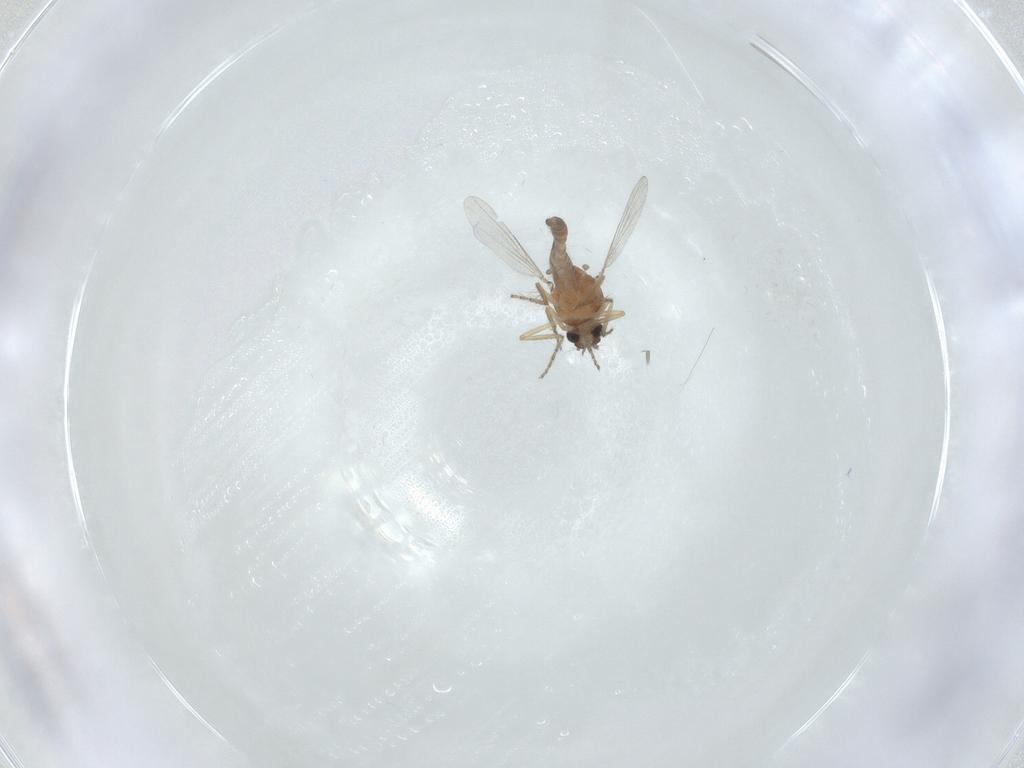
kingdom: Animalia
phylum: Arthropoda
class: Insecta
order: Diptera
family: Ceratopogonidae
